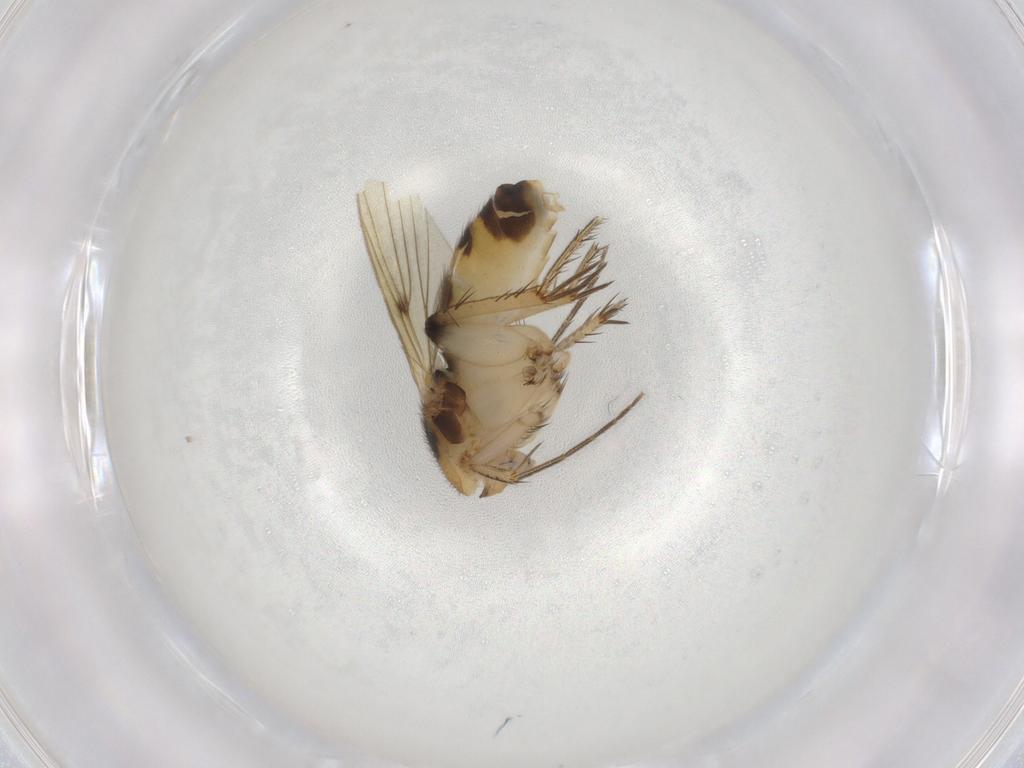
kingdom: Animalia
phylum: Arthropoda
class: Insecta
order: Diptera
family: Mycetophilidae
